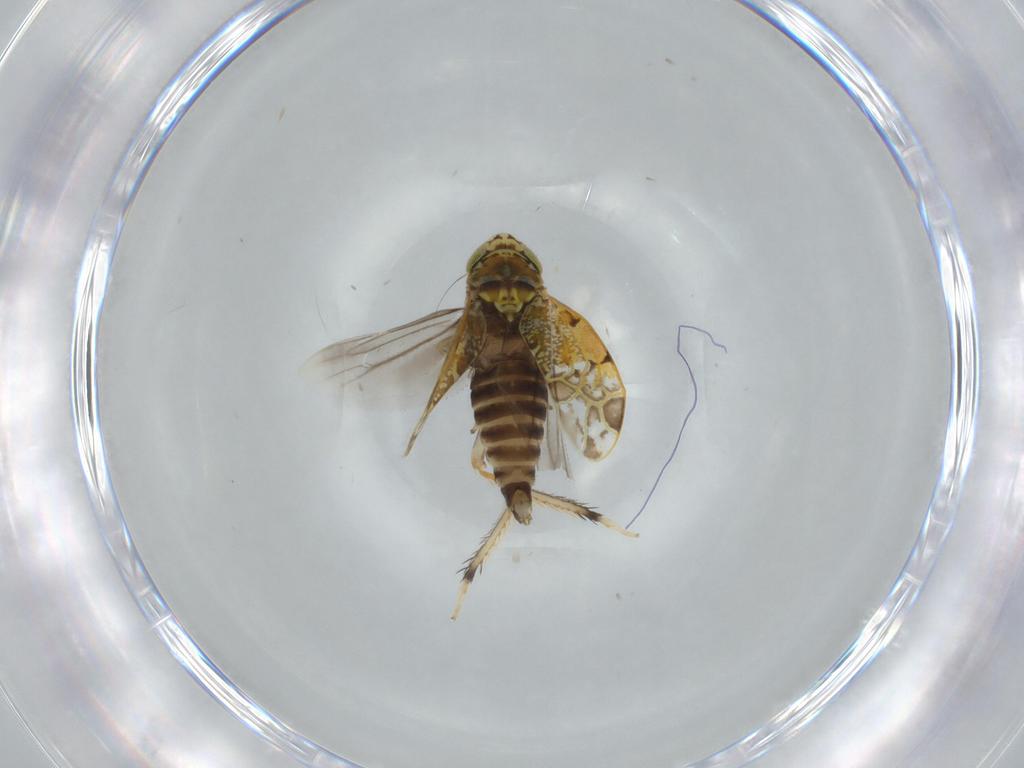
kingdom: Animalia
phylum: Arthropoda
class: Insecta
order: Hemiptera
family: Cicadellidae
